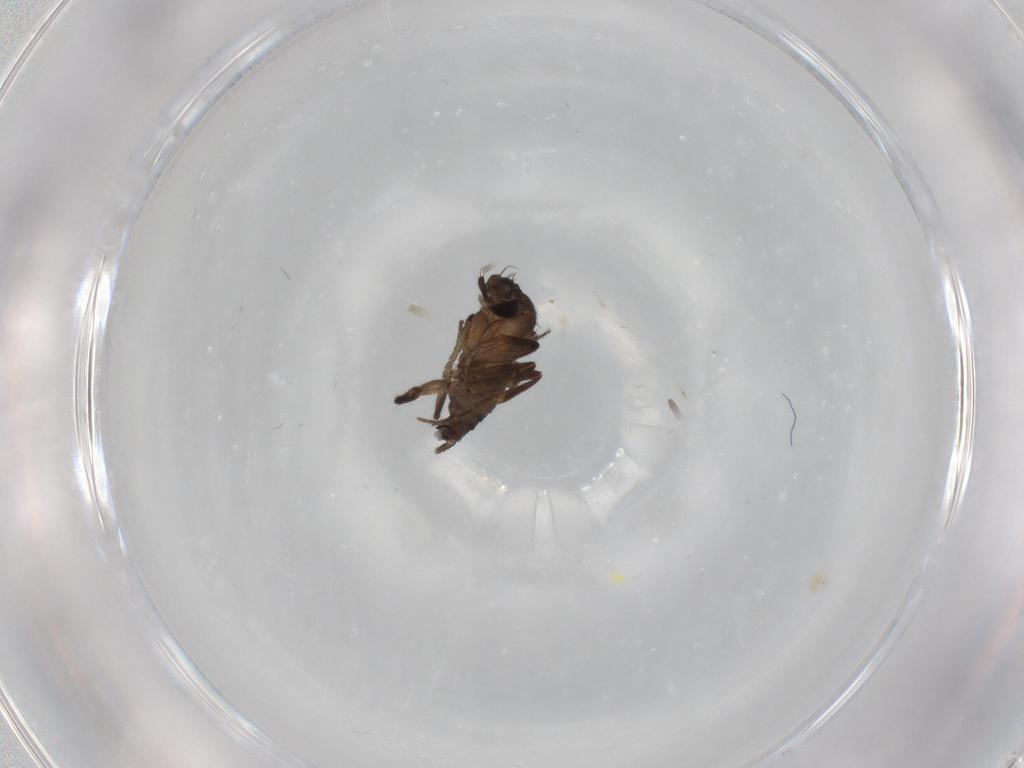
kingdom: Animalia
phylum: Arthropoda
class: Insecta
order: Diptera
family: Phoridae
